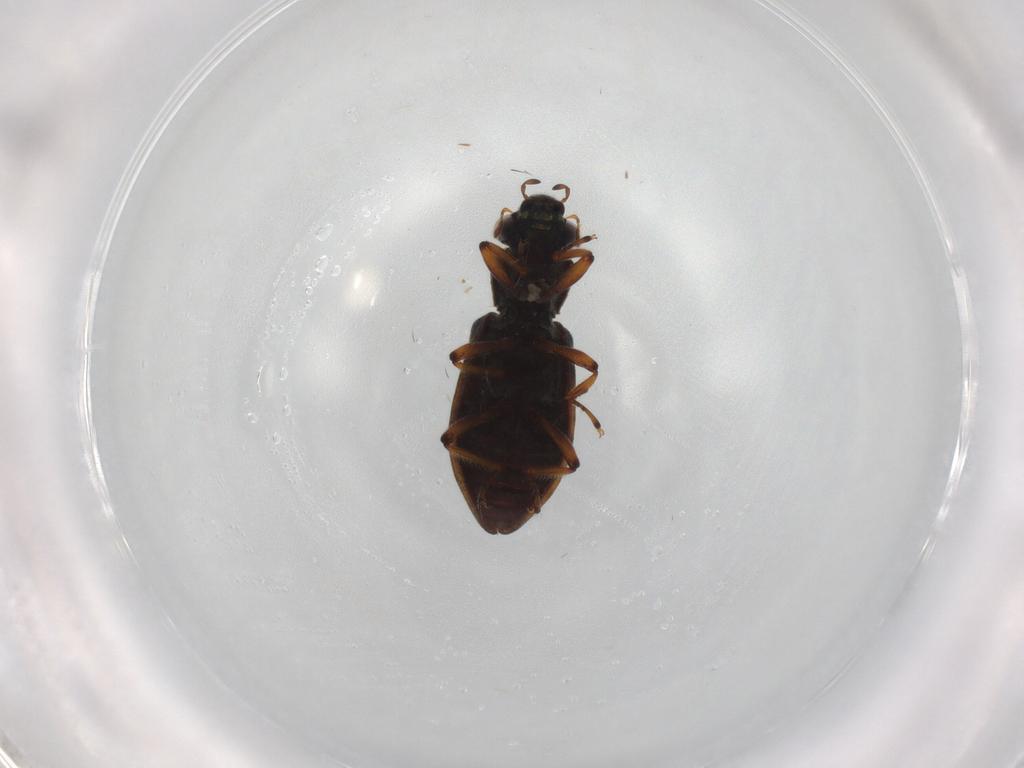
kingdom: Animalia
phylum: Arthropoda
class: Insecta
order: Coleoptera
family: Carabidae
